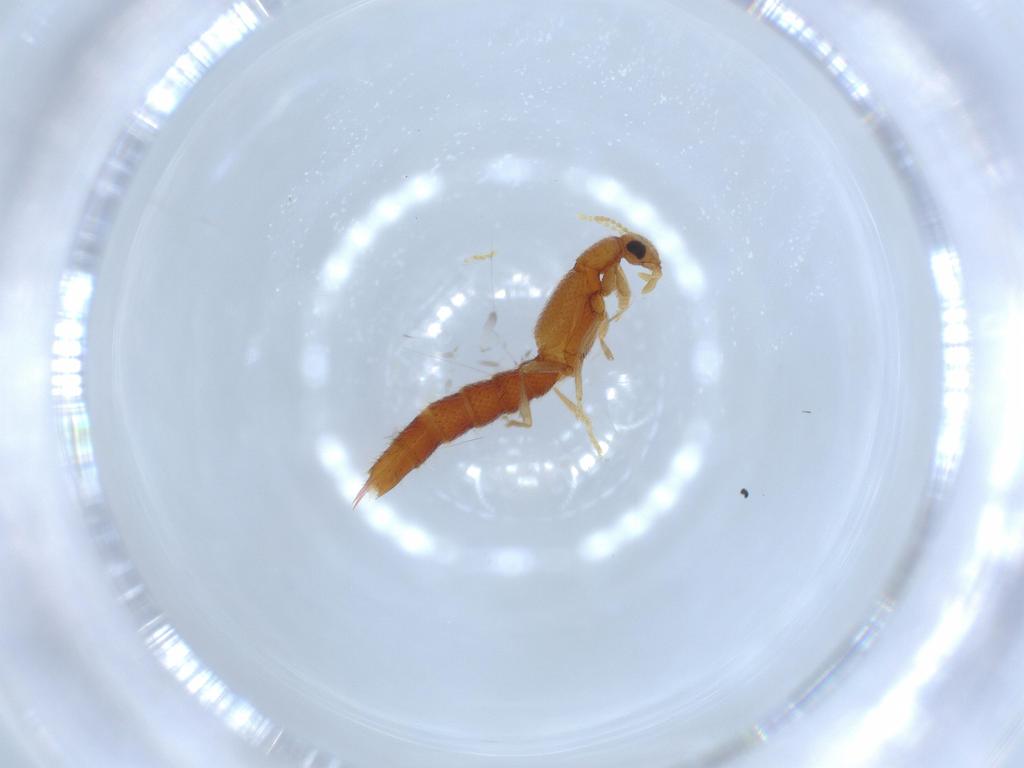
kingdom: Animalia
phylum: Arthropoda
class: Insecta
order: Coleoptera
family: Staphylinidae
